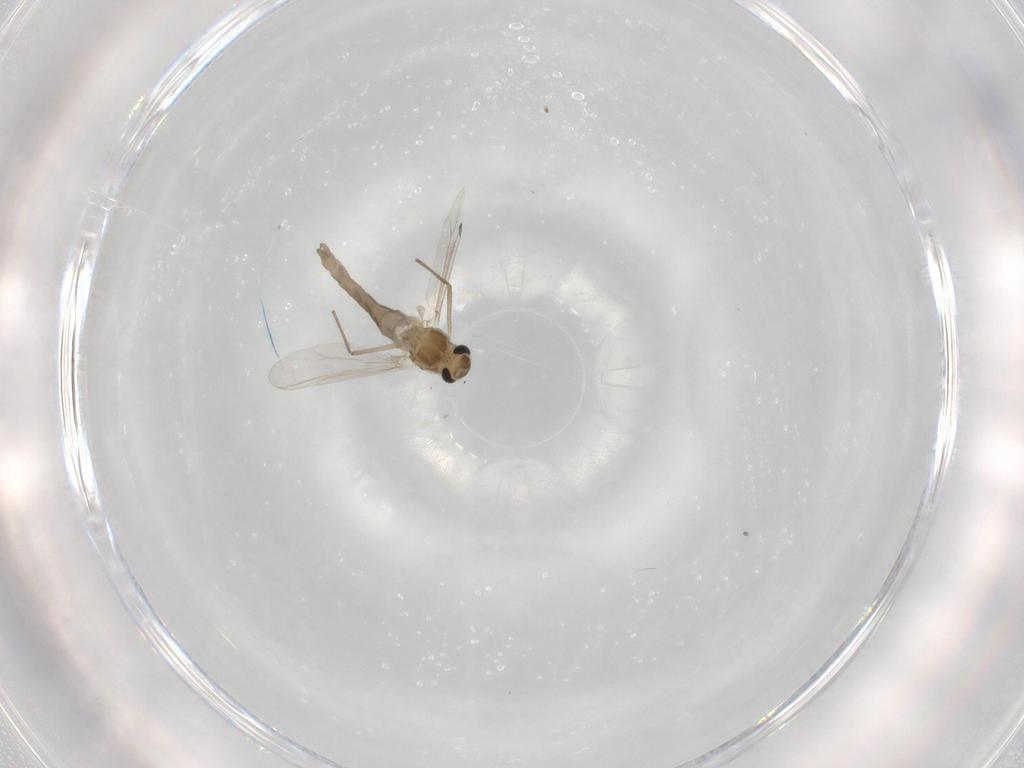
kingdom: Animalia
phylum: Arthropoda
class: Insecta
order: Diptera
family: Chironomidae
